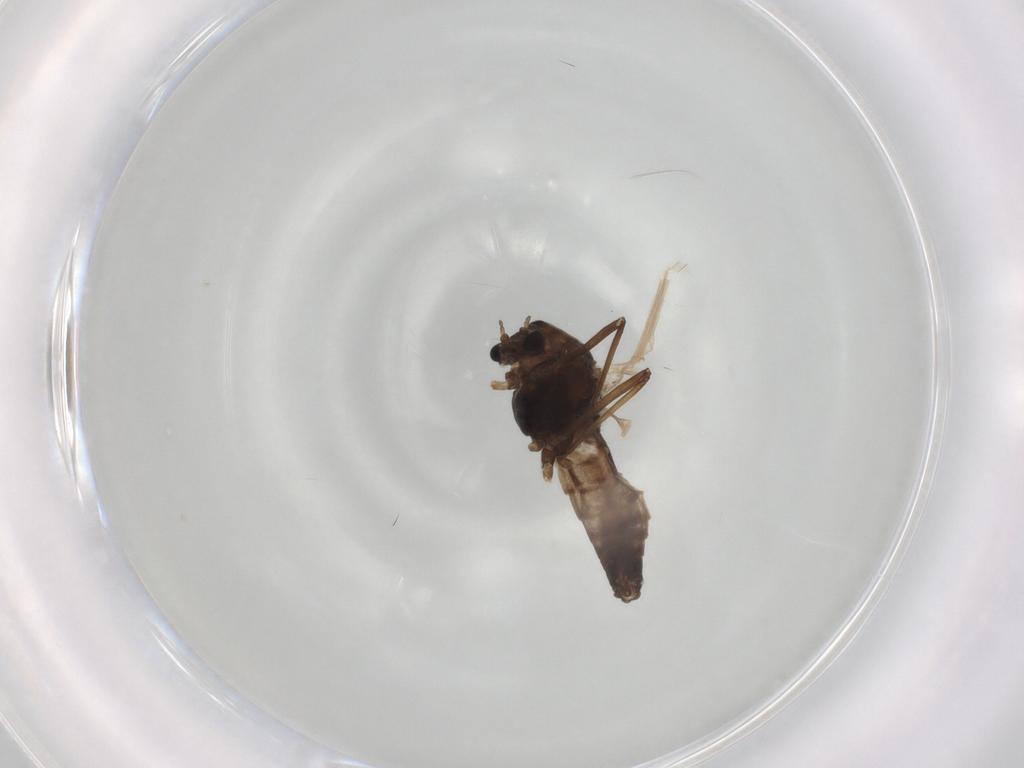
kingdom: Animalia
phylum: Arthropoda
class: Insecta
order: Diptera
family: Chironomidae
